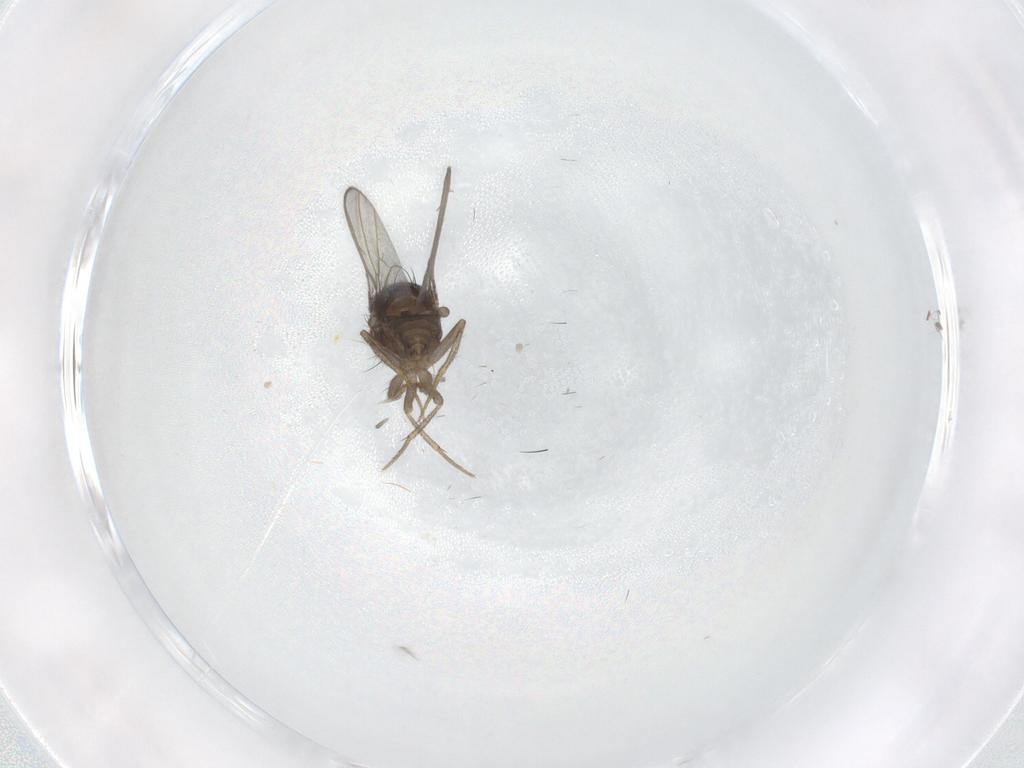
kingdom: Animalia
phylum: Arthropoda
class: Insecta
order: Diptera
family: Drosophilidae
